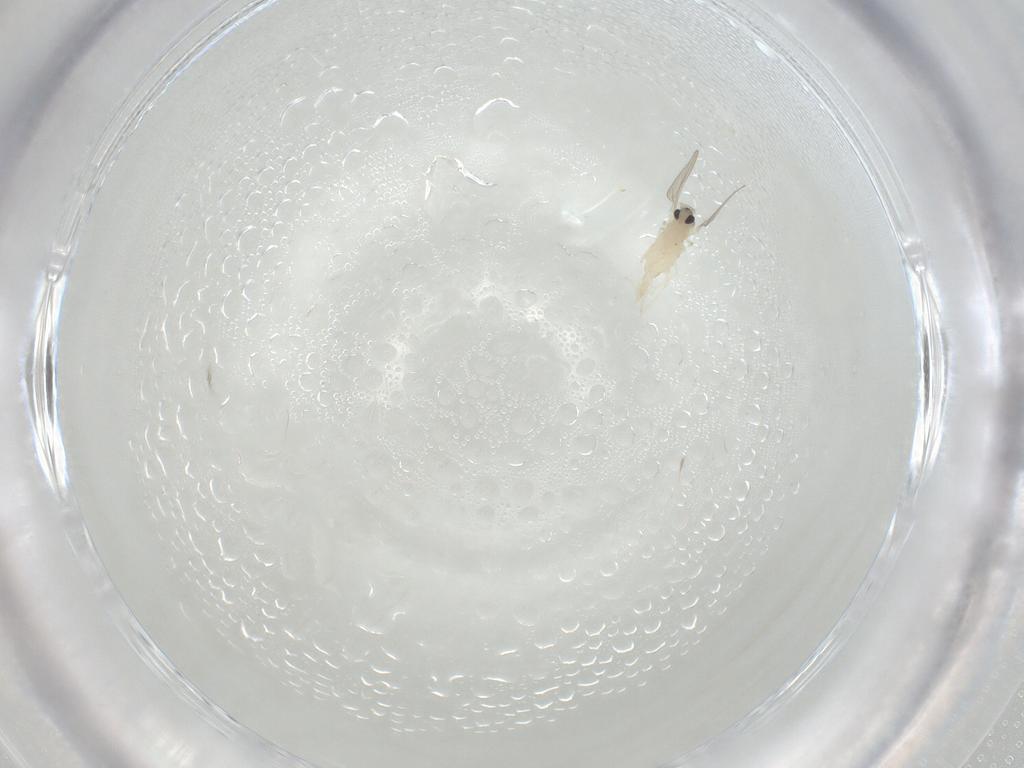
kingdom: Animalia
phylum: Arthropoda
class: Insecta
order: Diptera
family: Cecidomyiidae
